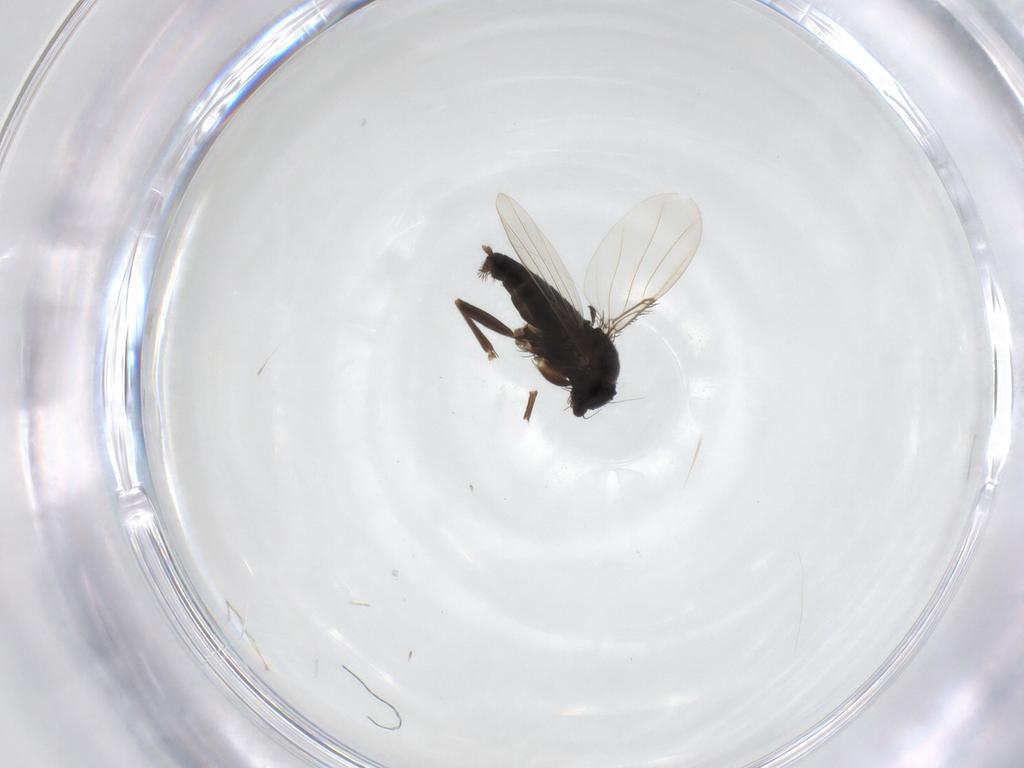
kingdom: Animalia
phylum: Arthropoda
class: Insecta
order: Diptera
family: Phoridae
